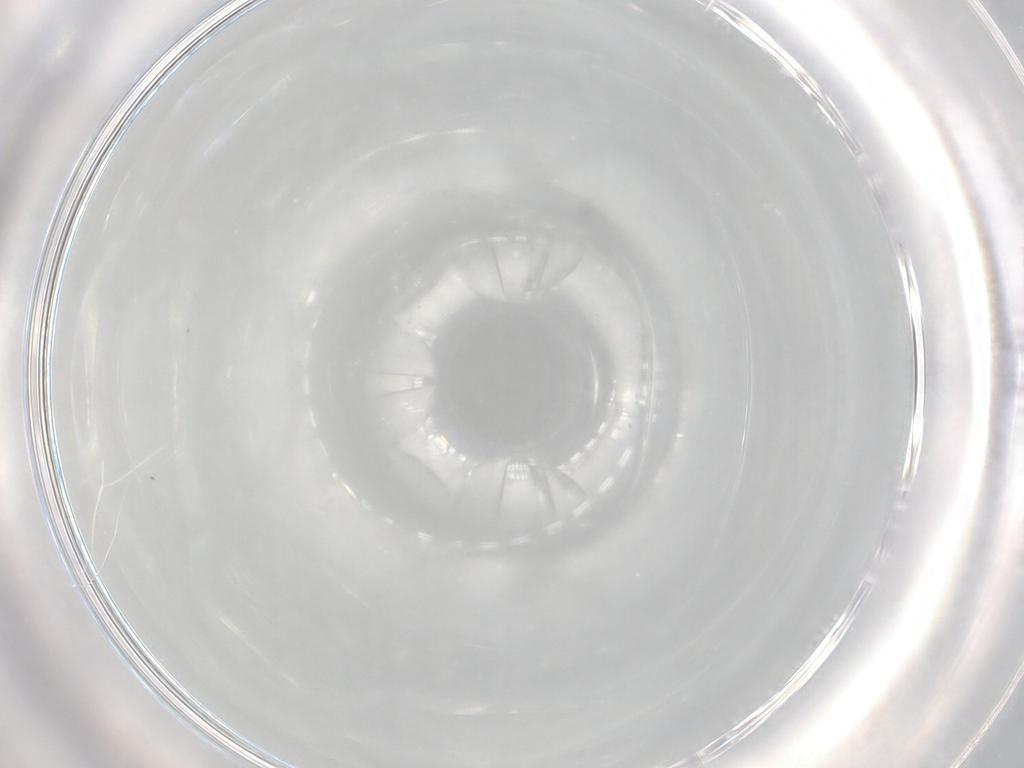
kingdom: Animalia
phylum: Arthropoda
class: Insecta
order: Diptera
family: Cecidomyiidae
